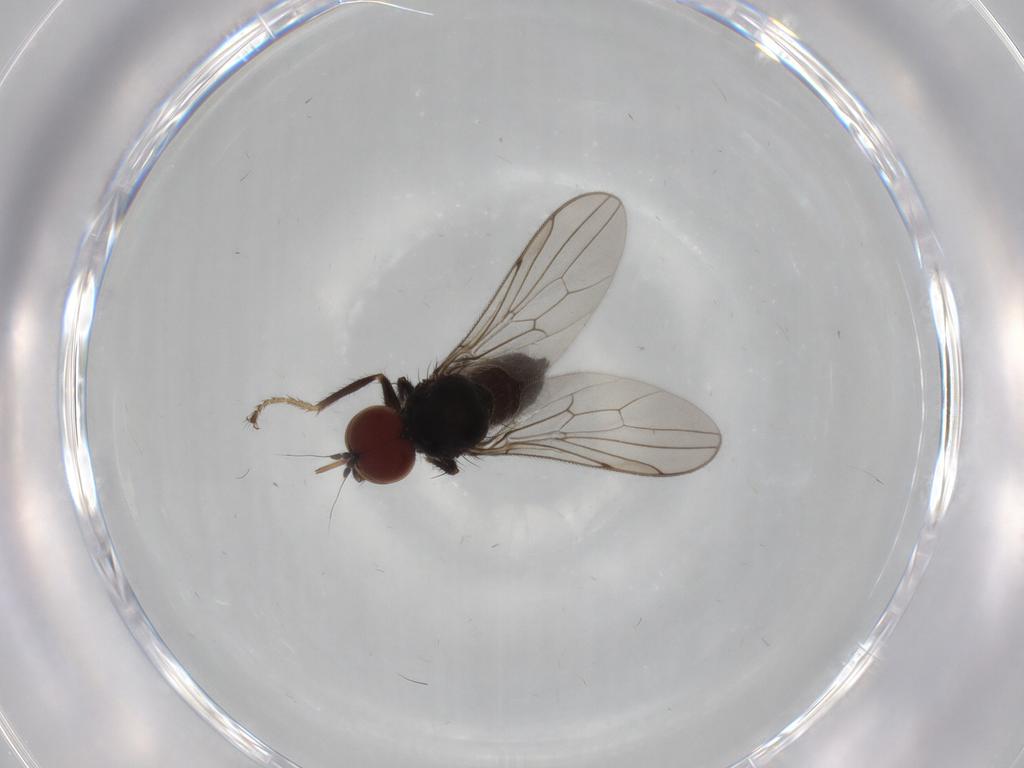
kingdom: Animalia
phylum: Arthropoda
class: Insecta
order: Diptera
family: Hybotidae
